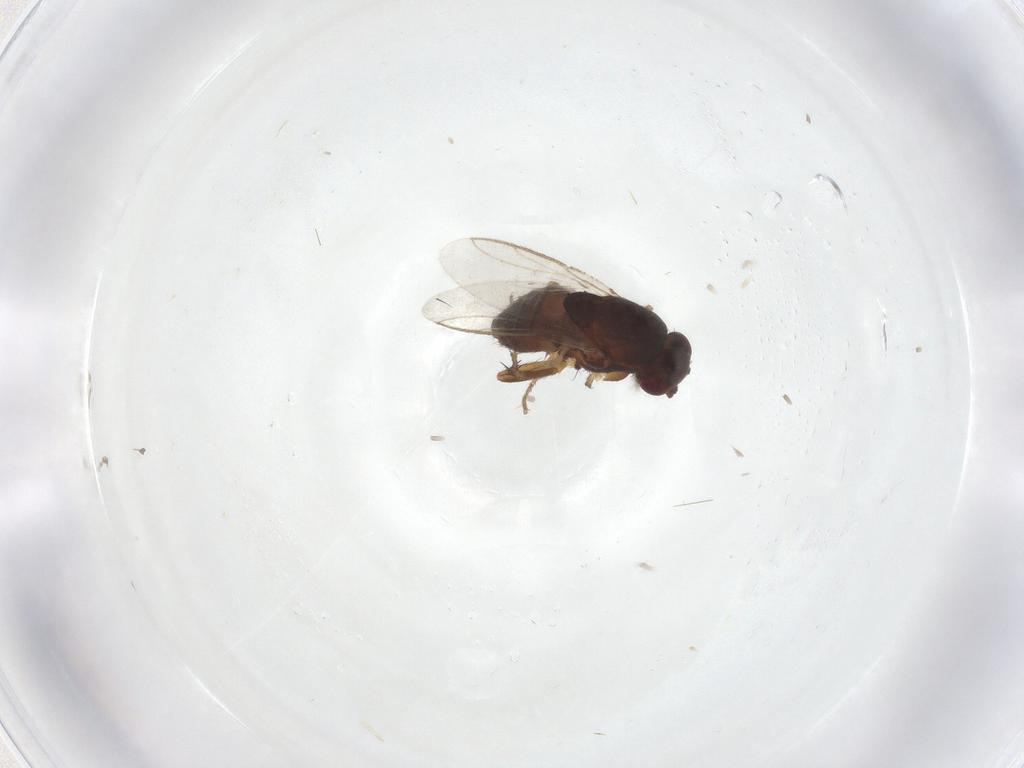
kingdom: Animalia
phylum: Arthropoda
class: Insecta
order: Diptera
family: Sphaeroceridae
